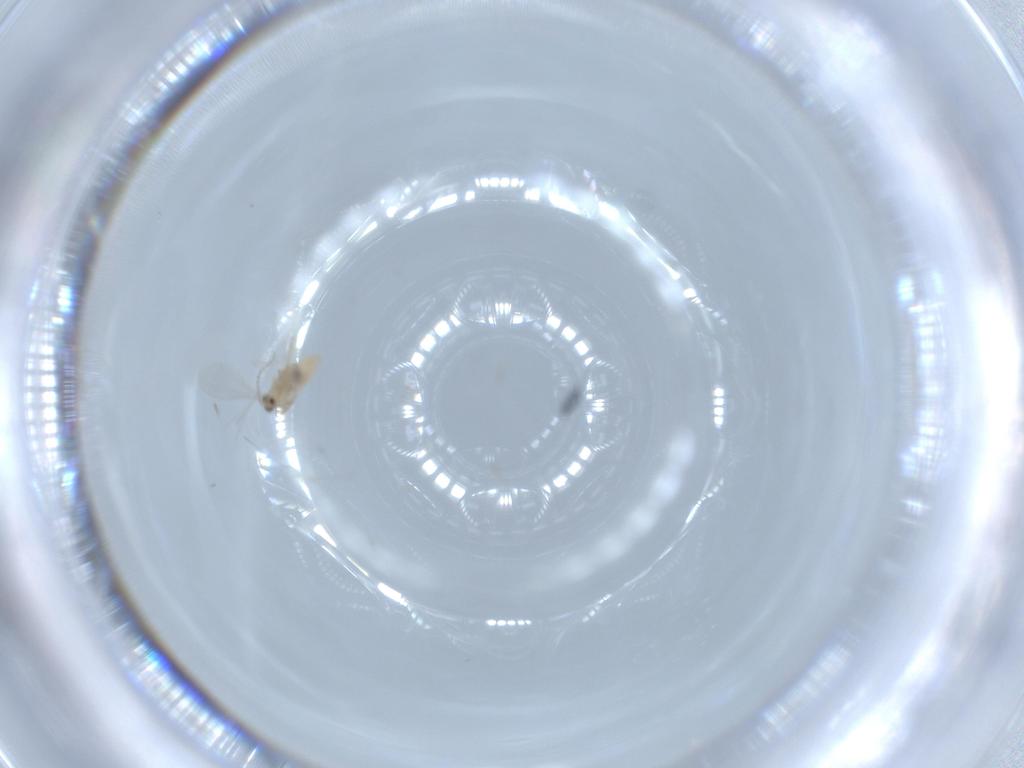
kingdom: Animalia
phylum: Arthropoda
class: Insecta
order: Diptera
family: Cecidomyiidae
